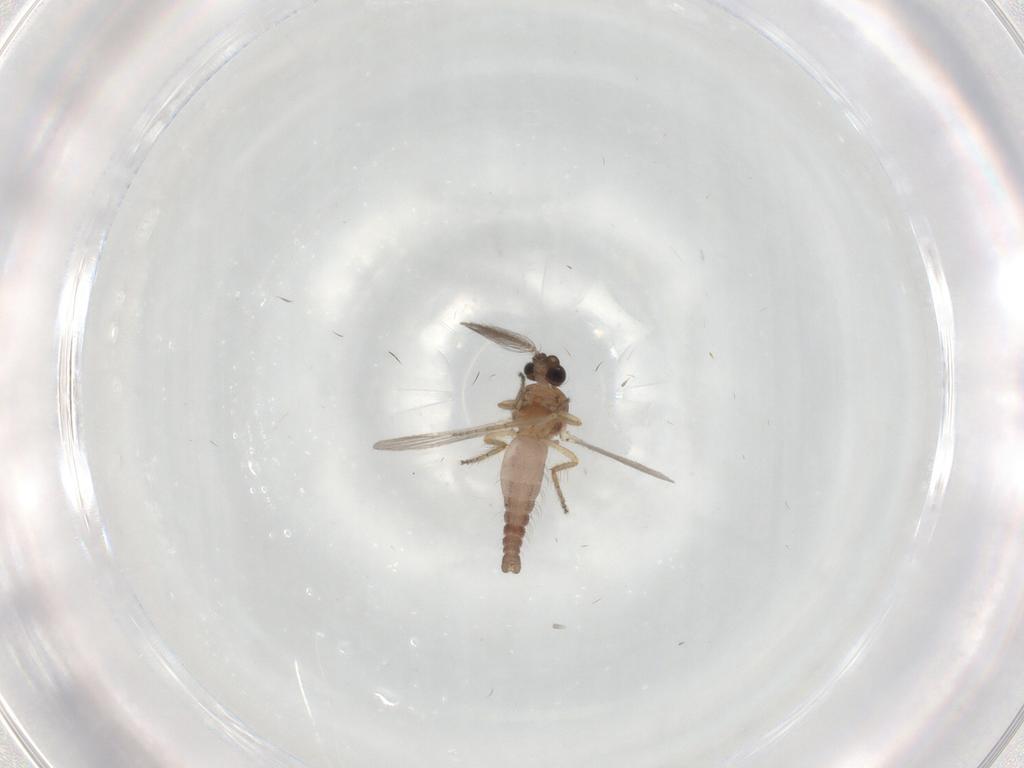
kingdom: Animalia
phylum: Arthropoda
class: Insecta
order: Diptera
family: Ceratopogonidae
